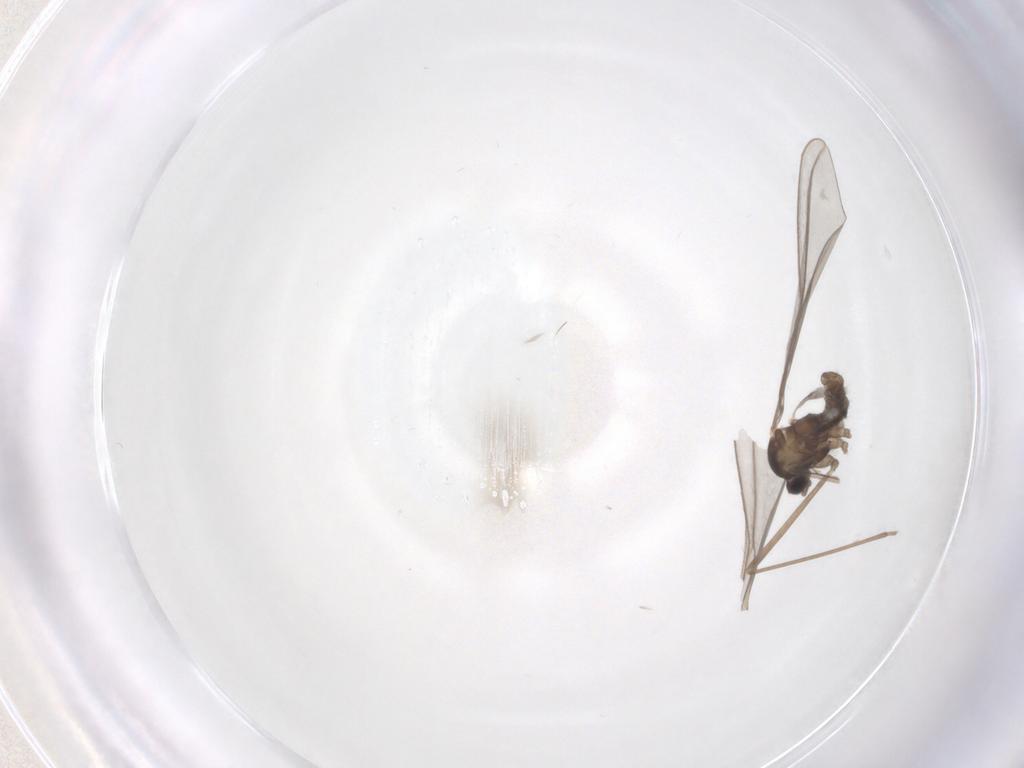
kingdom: Animalia
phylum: Arthropoda
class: Insecta
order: Diptera
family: Cecidomyiidae
